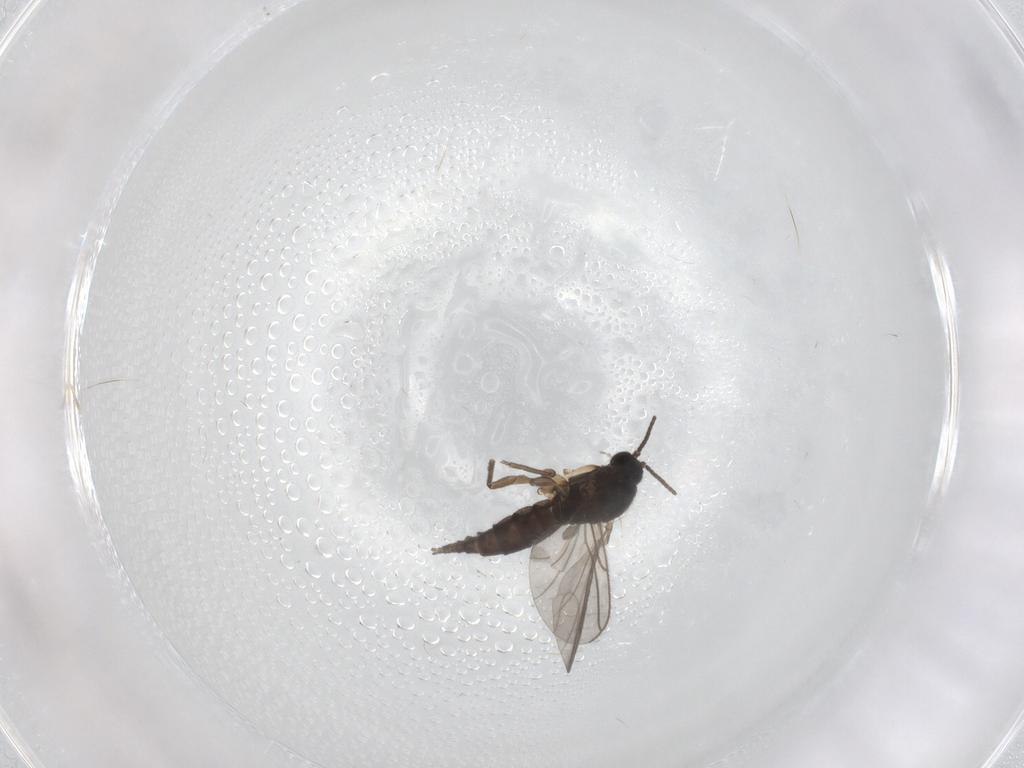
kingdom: Animalia
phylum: Arthropoda
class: Insecta
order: Diptera
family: Sciaridae
